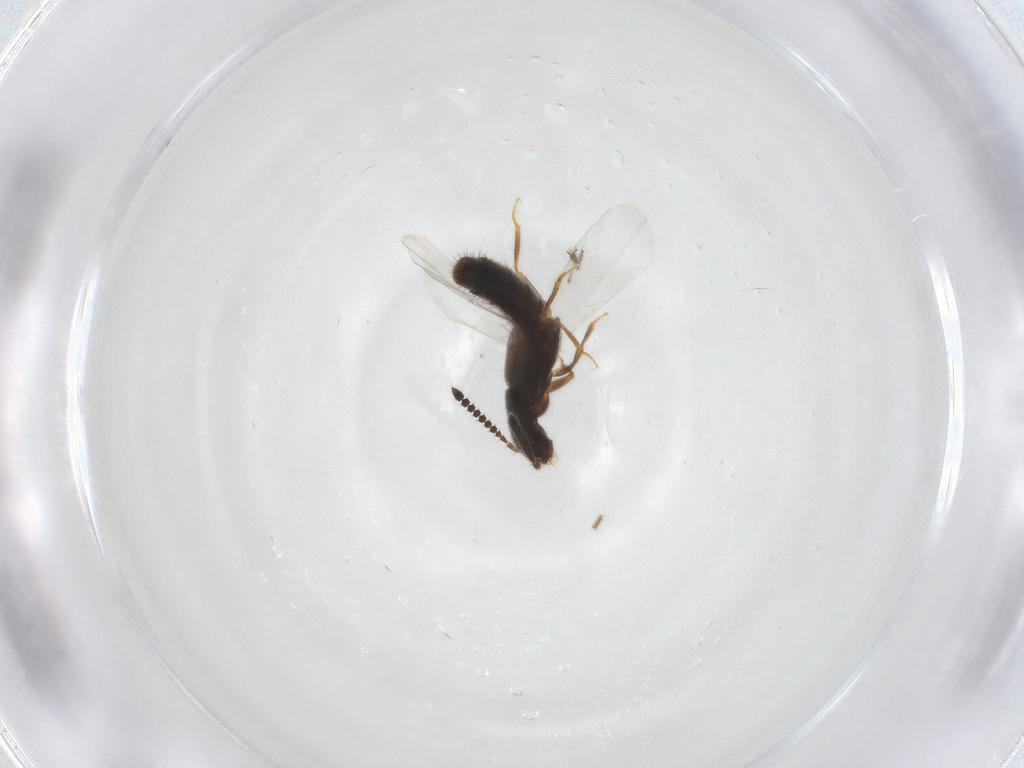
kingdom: Animalia
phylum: Arthropoda
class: Insecta
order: Coleoptera
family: Staphylinidae
